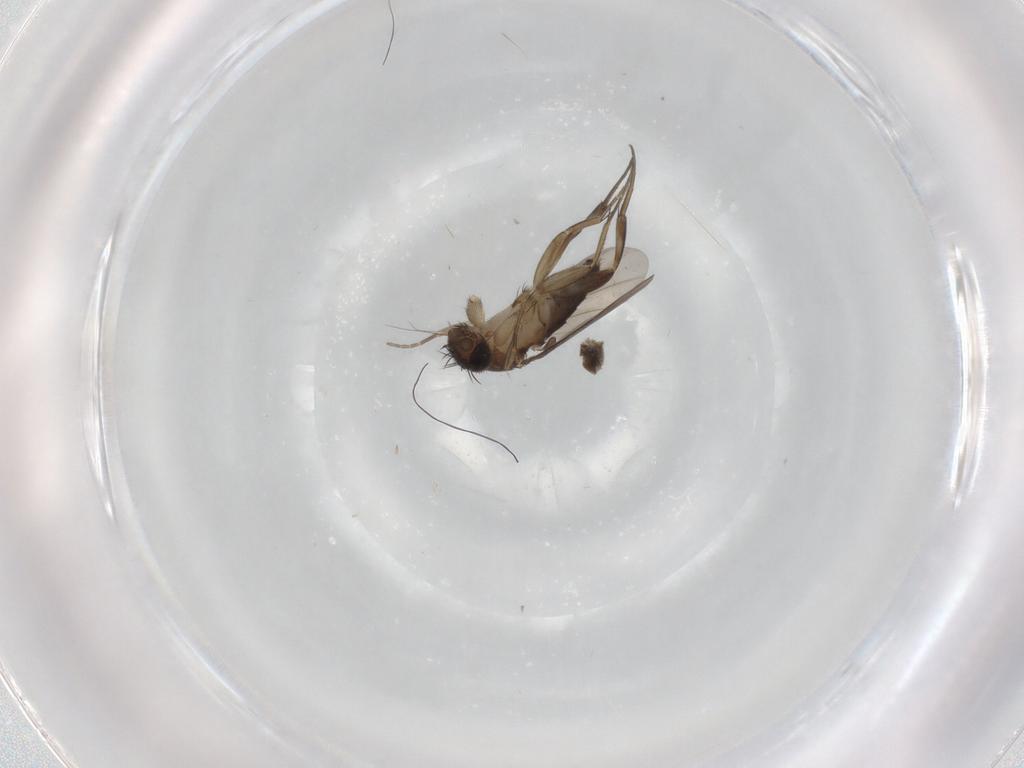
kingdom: Animalia
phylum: Arthropoda
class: Insecta
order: Diptera
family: Phoridae
